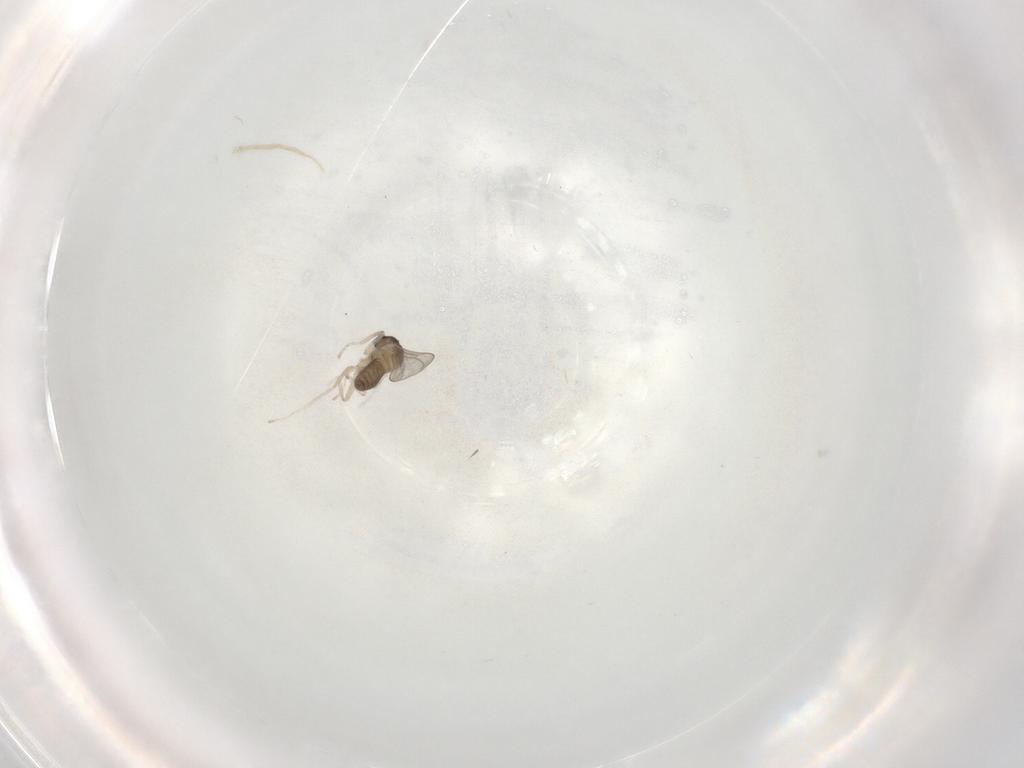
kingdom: Animalia
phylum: Arthropoda
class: Insecta
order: Diptera
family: Cecidomyiidae
